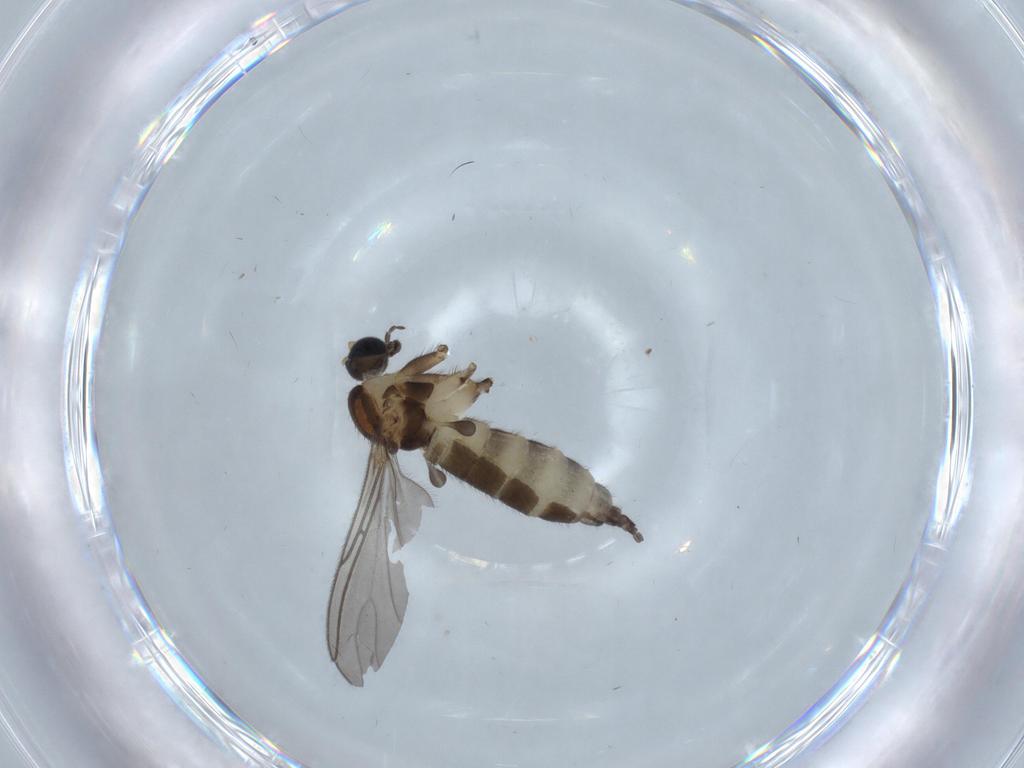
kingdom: Animalia
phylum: Arthropoda
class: Insecta
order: Diptera
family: Sciaridae
